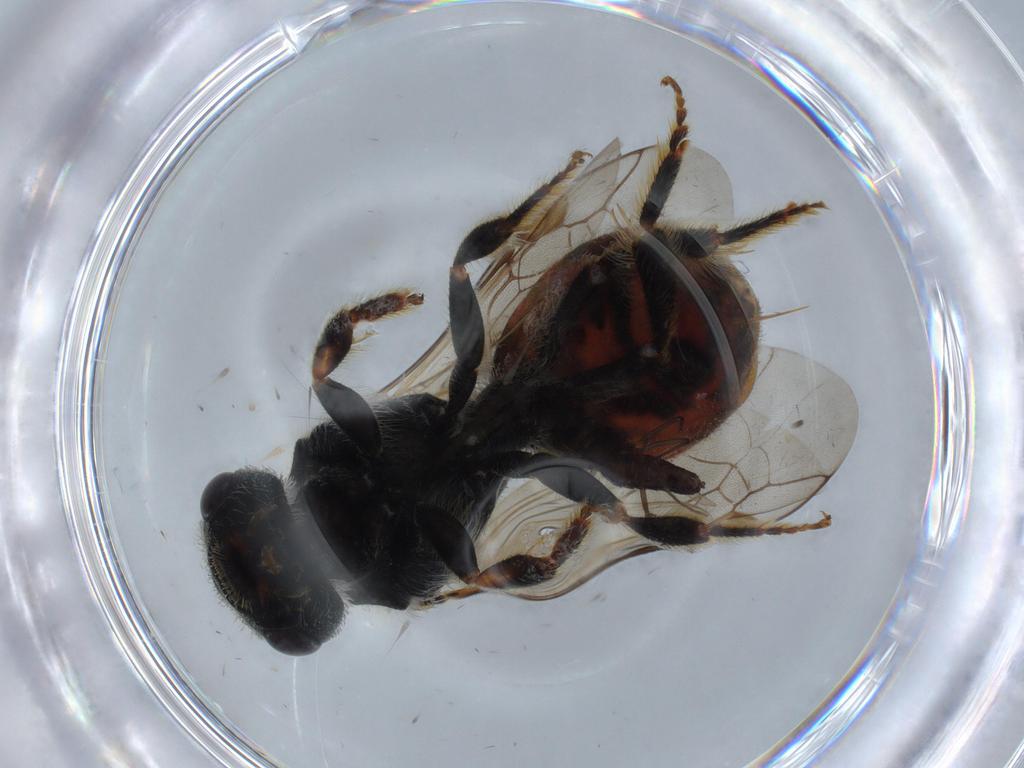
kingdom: Animalia
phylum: Arthropoda
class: Insecta
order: Hymenoptera
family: Halictidae
